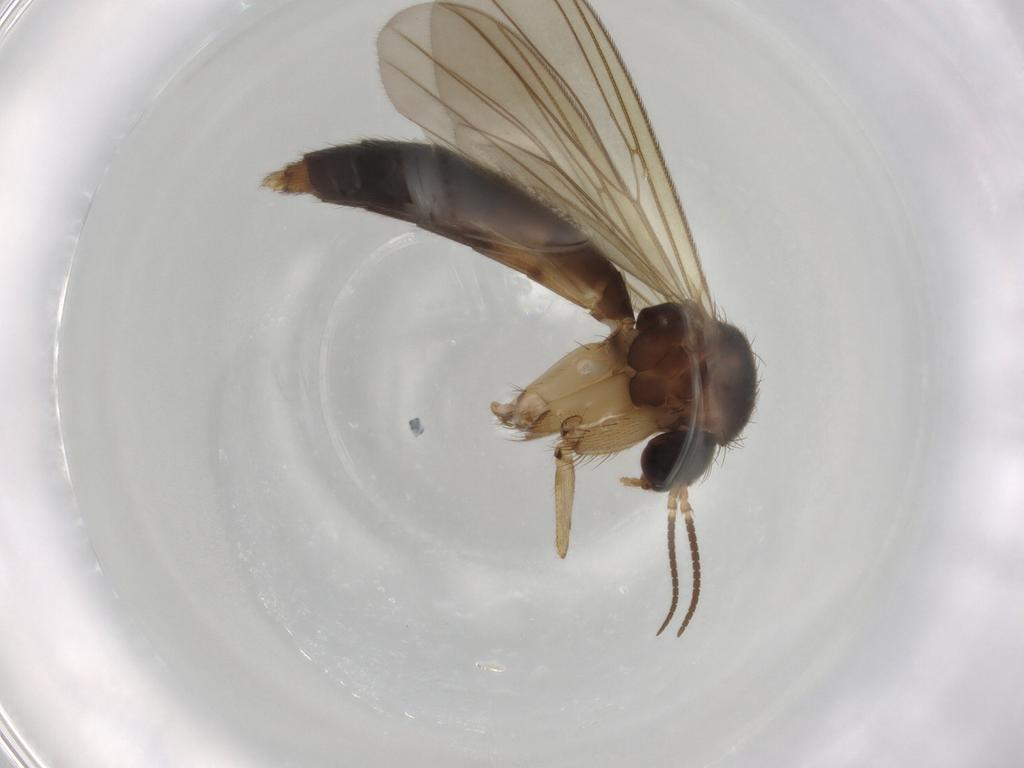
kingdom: Animalia
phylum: Arthropoda
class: Insecta
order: Diptera
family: Mycetophilidae
